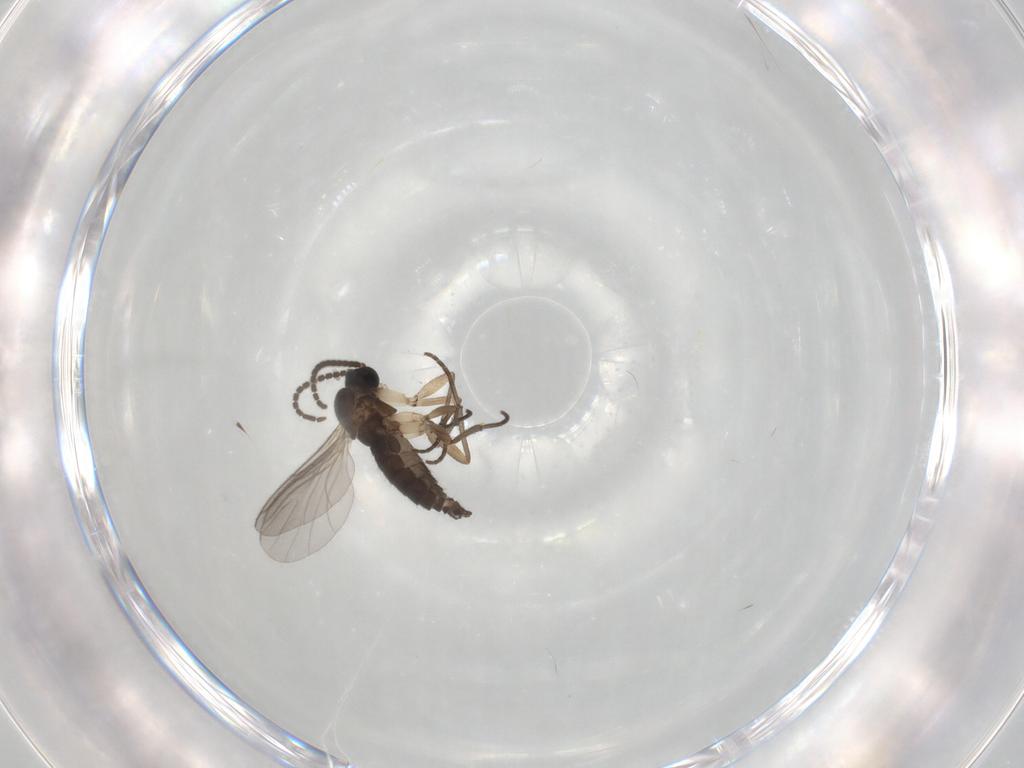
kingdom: Animalia
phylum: Arthropoda
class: Insecta
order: Diptera
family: Sciaridae
